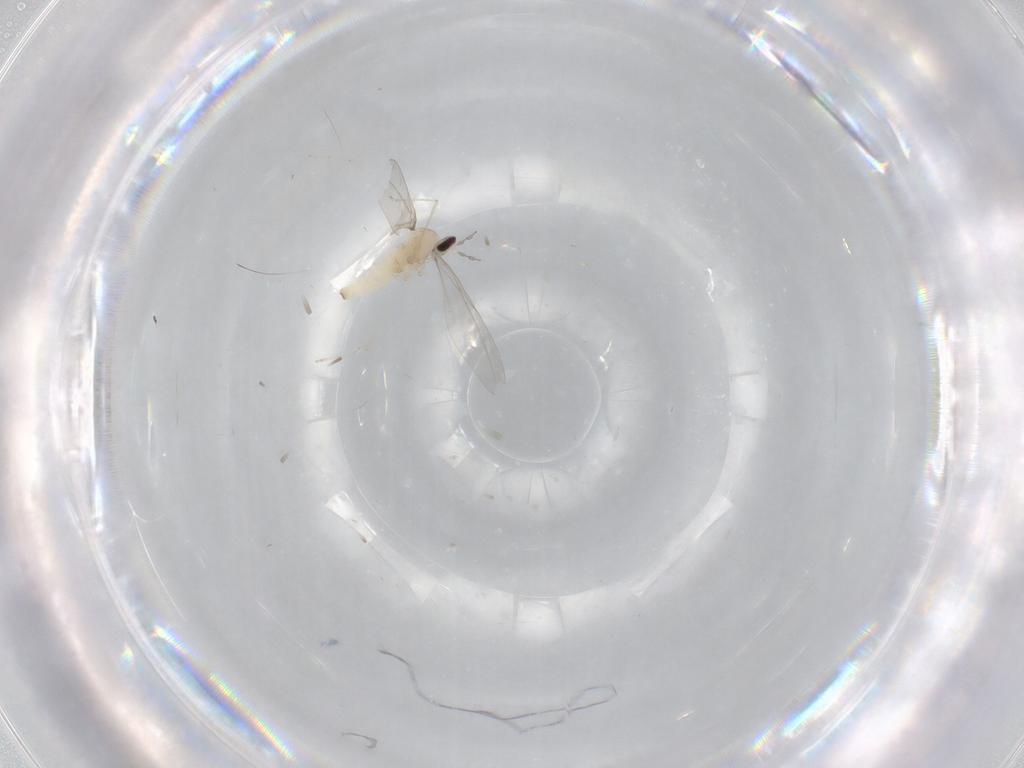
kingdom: Animalia
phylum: Arthropoda
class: Insecta
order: Diptera
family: Cecidomyiidae
